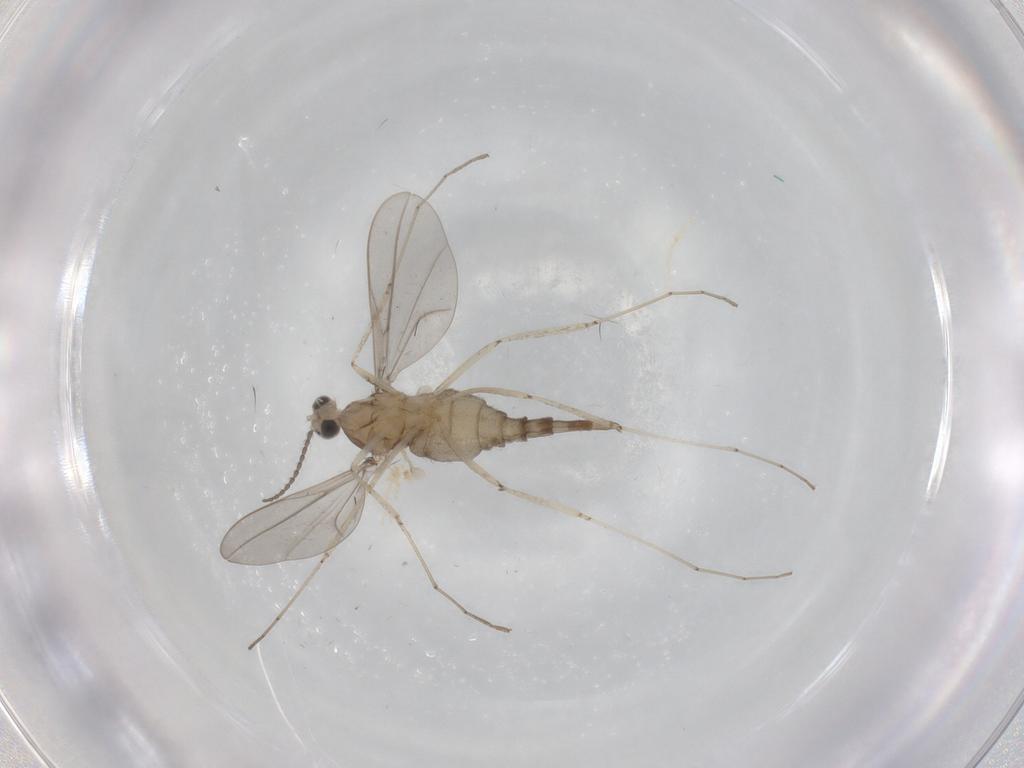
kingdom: Animalia
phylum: Arthropoda
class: Insecta
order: Diptera
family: Cecidomyiidae
